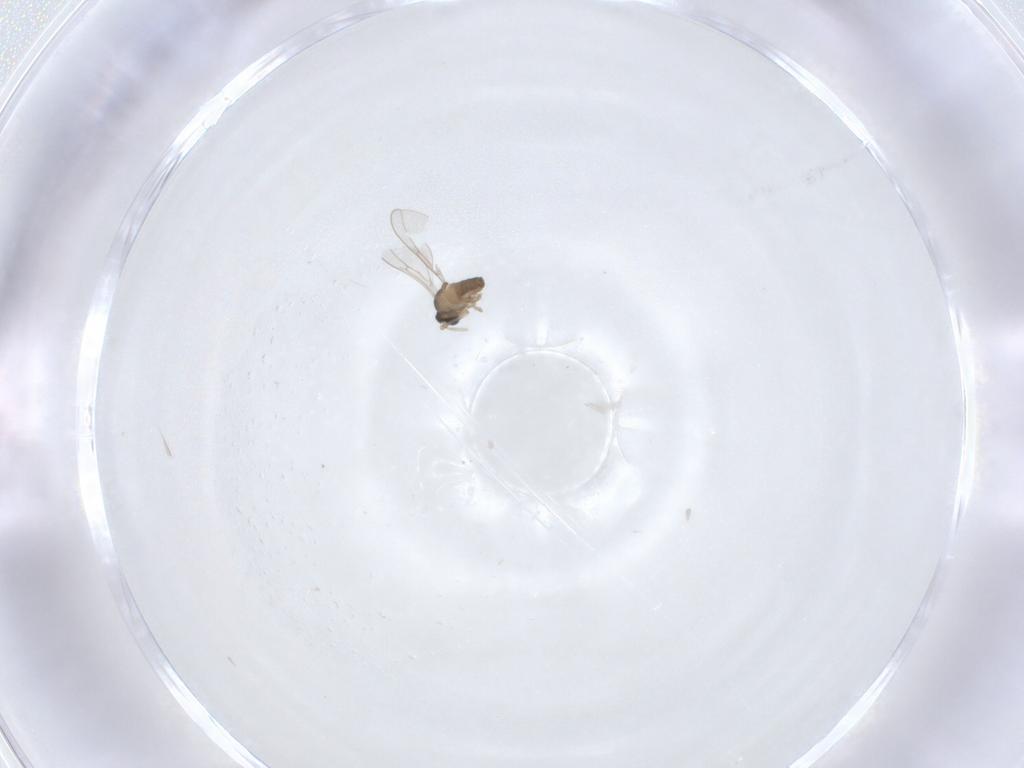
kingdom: Animalia
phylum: Arthropoda
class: Insecta
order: Diptera
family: Cecidomyiidae
